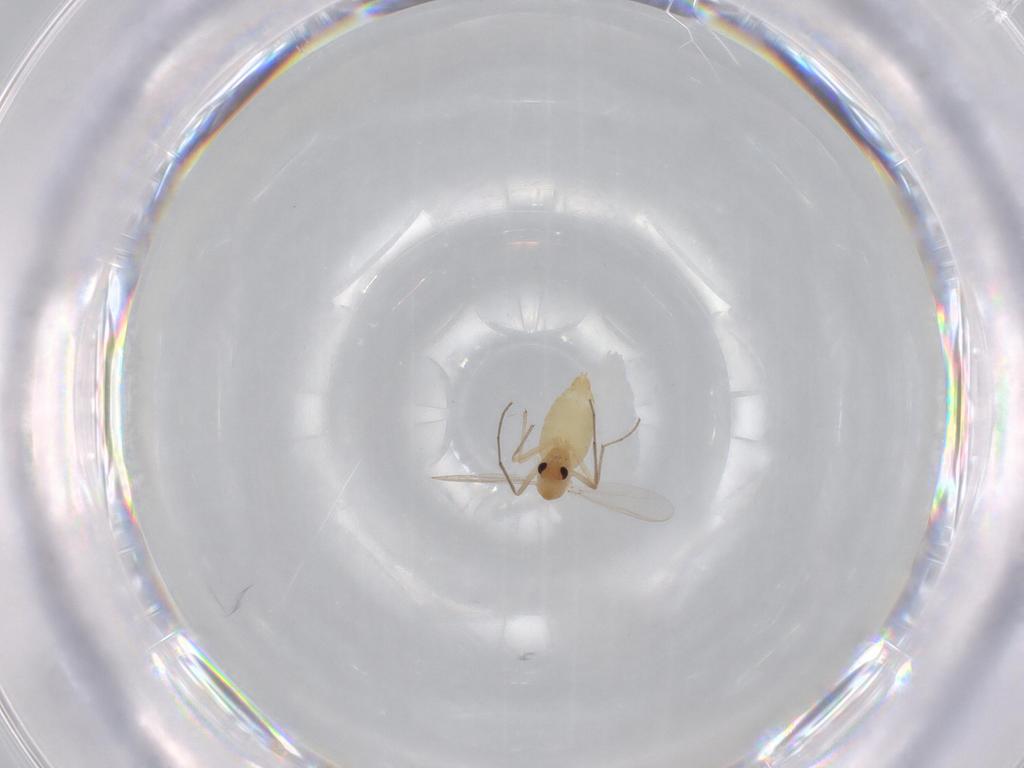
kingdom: Animalia
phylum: Arthropoda
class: Insecta
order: Diptera
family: Chironomidae
